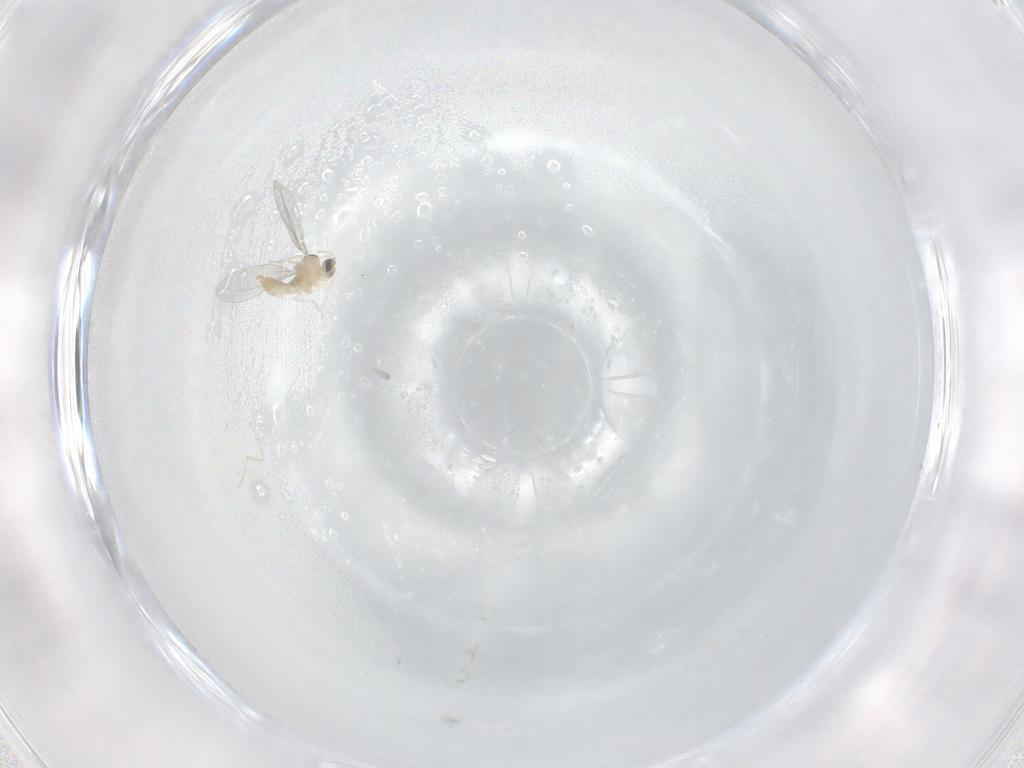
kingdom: Animalia
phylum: Arthropoda
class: Insecta
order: Diptera
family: Cecidomyiidae
